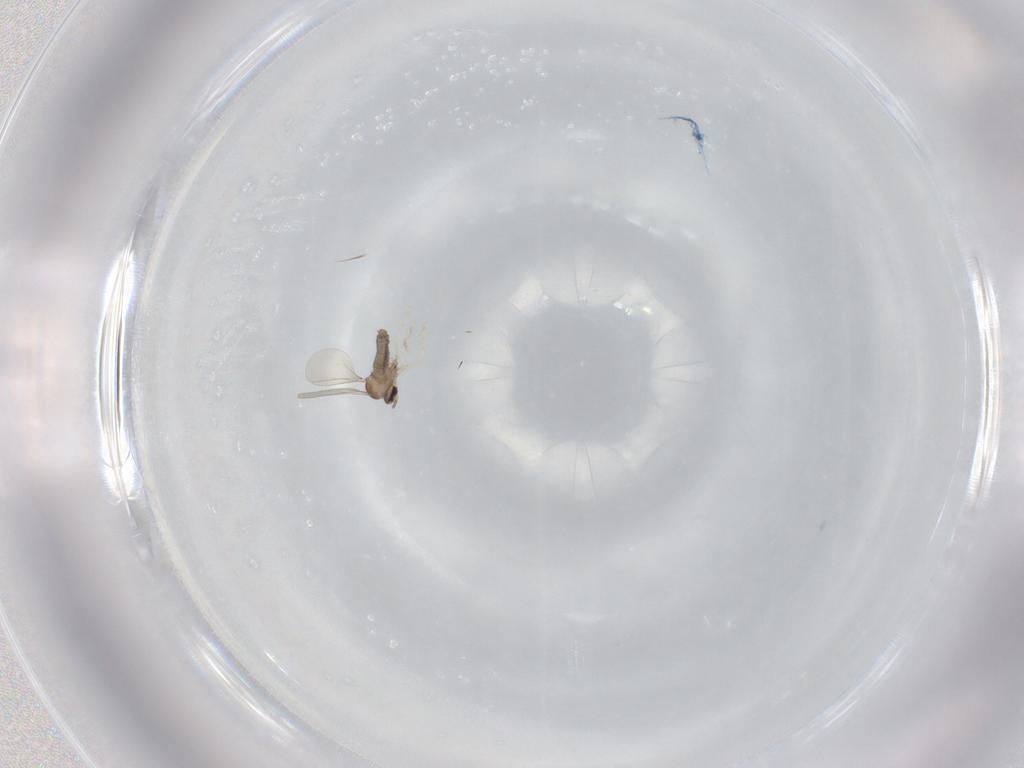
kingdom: Animalia
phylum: Arthropoda
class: Insecta
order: Diptera
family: Cecidomyiidae
